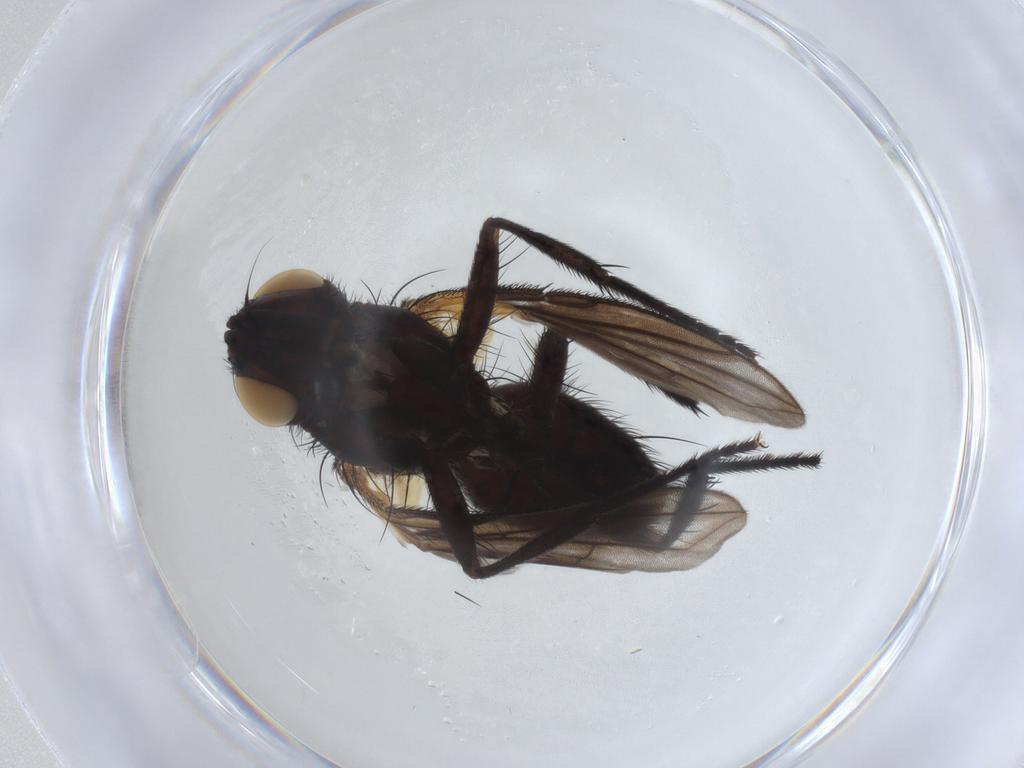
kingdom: Animalia
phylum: Arthropoda
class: Insecta
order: Diptera
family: Tachinidae
